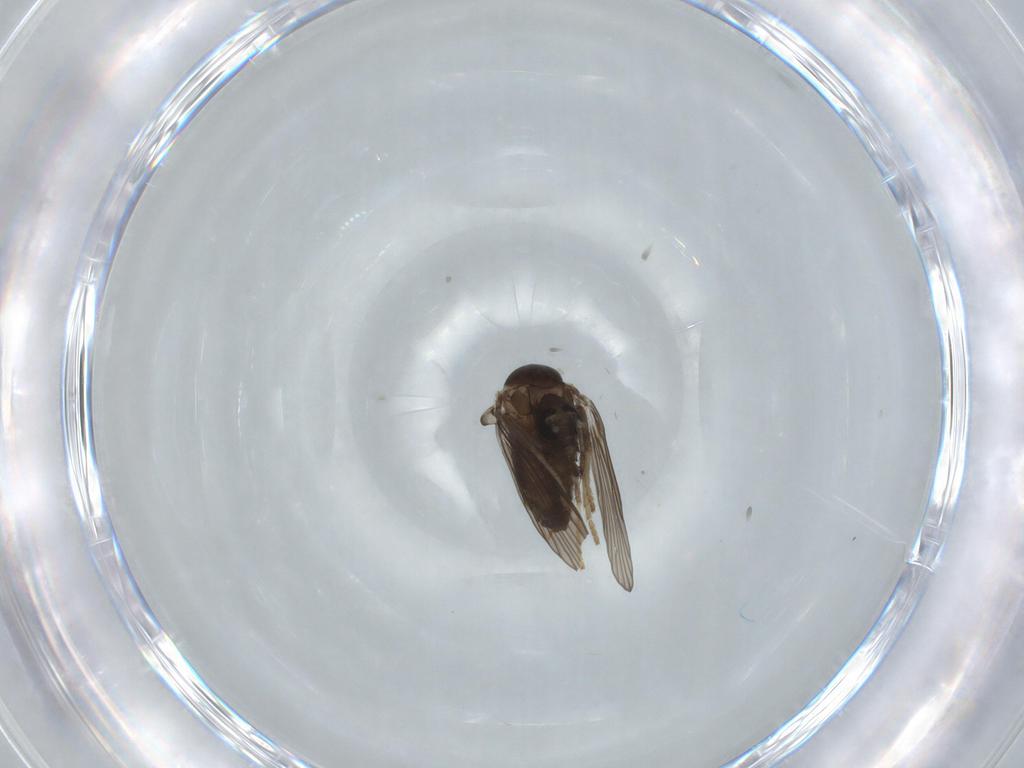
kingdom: Animalia
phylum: Arthropoda
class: Insecta
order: Diptera
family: Psychodidae
